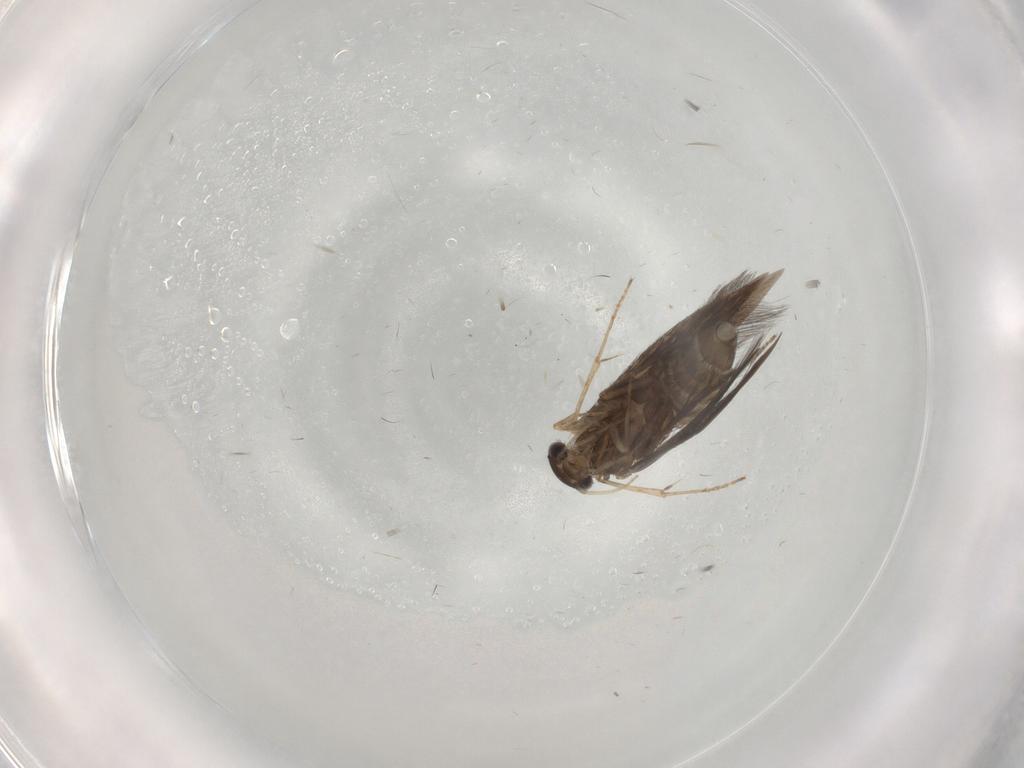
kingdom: Animalia
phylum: Arthropoda
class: Insecta
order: Trichoptera
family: Hydroptilidae
